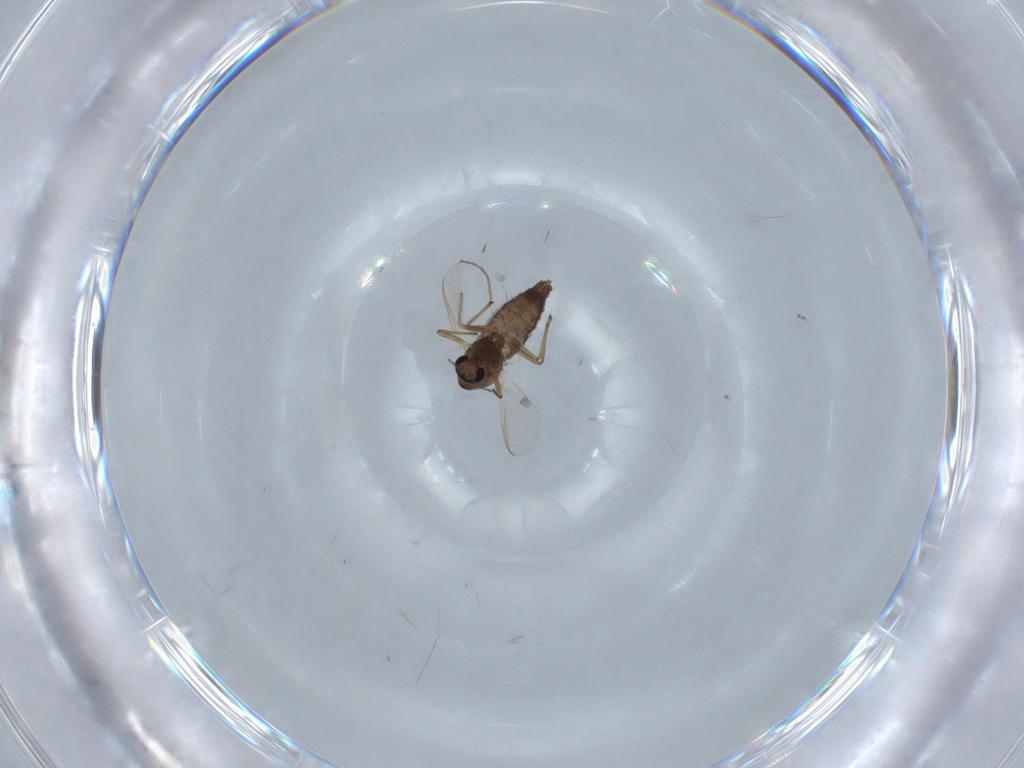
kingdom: Animalia
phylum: Arthropoda
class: Insecta
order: Diptera
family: Chironomidae
